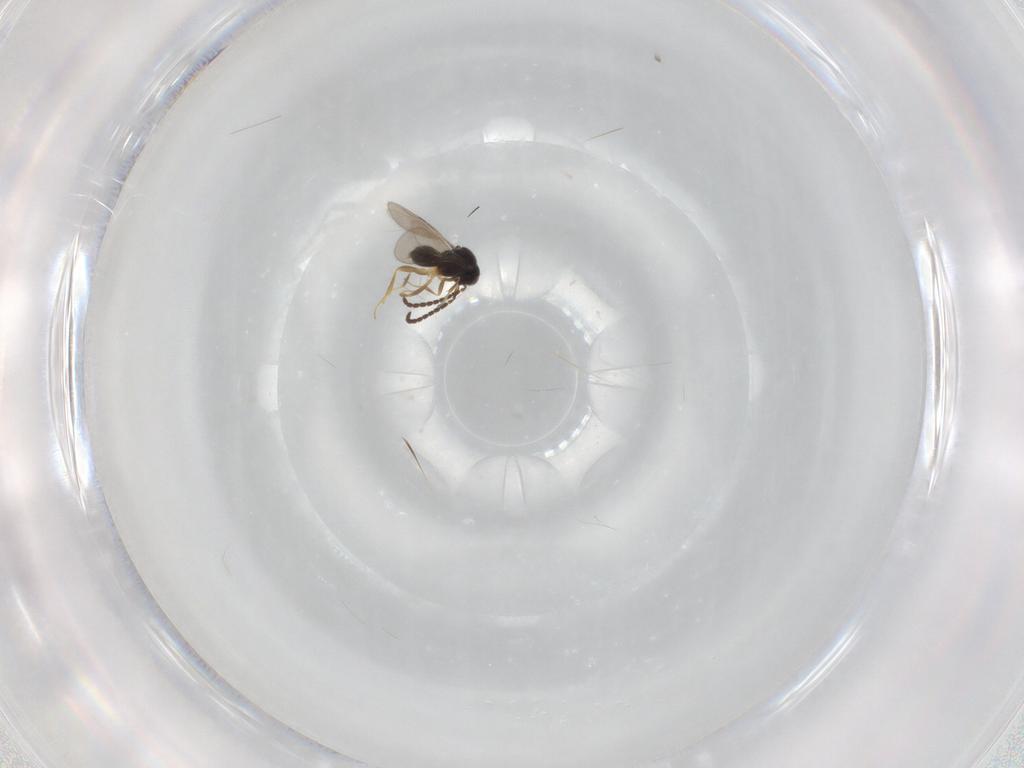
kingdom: Animalia
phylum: Arthropoda
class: Insecta
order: Hymenoptera
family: Ceraphronidae
